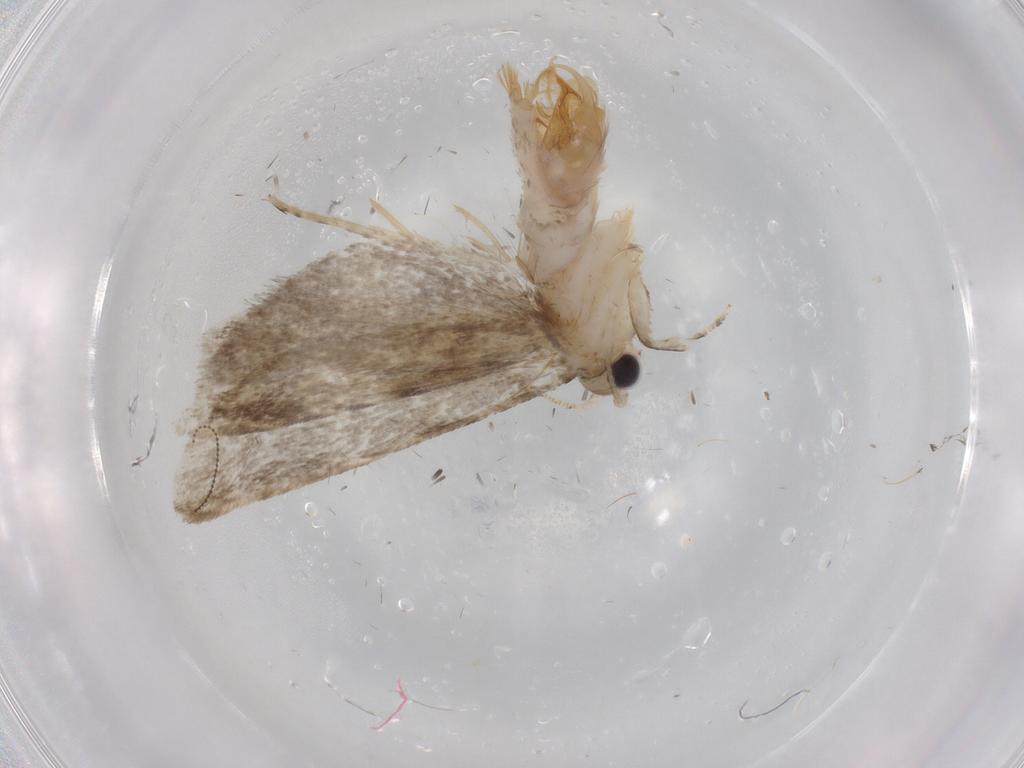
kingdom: Animalia
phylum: Arthropoda
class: Insecta
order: Lepidoptera
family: Tineidae
